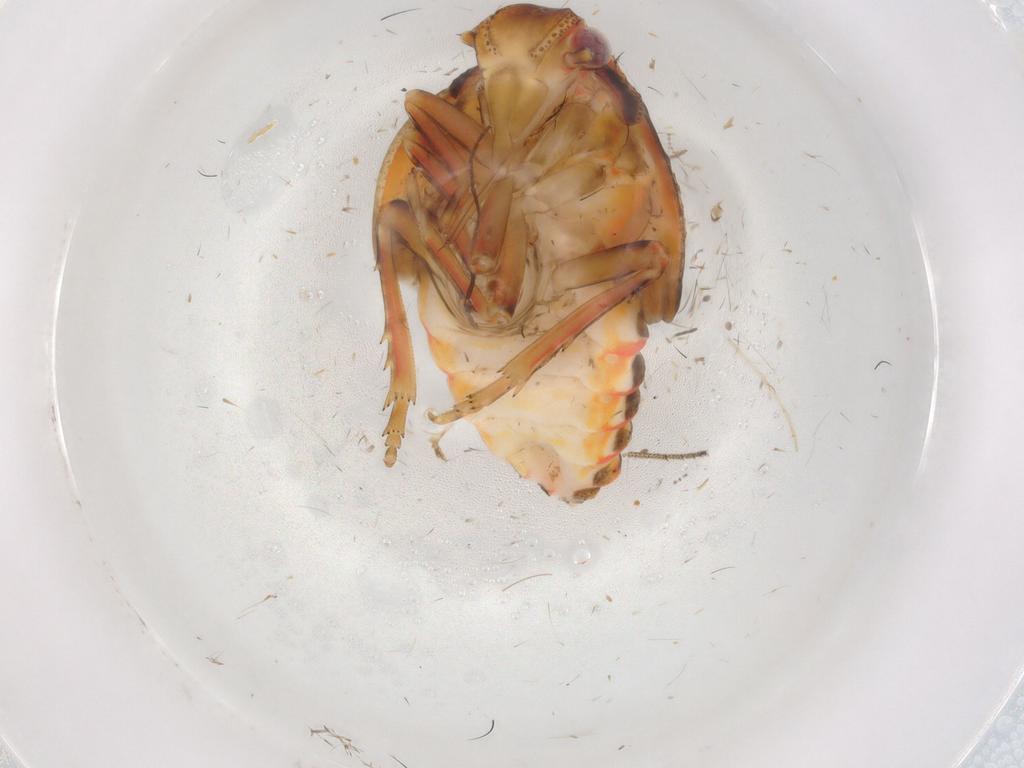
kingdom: Animalia
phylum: Arthropoda
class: Insecta
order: Hemiptera
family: Flatidae
